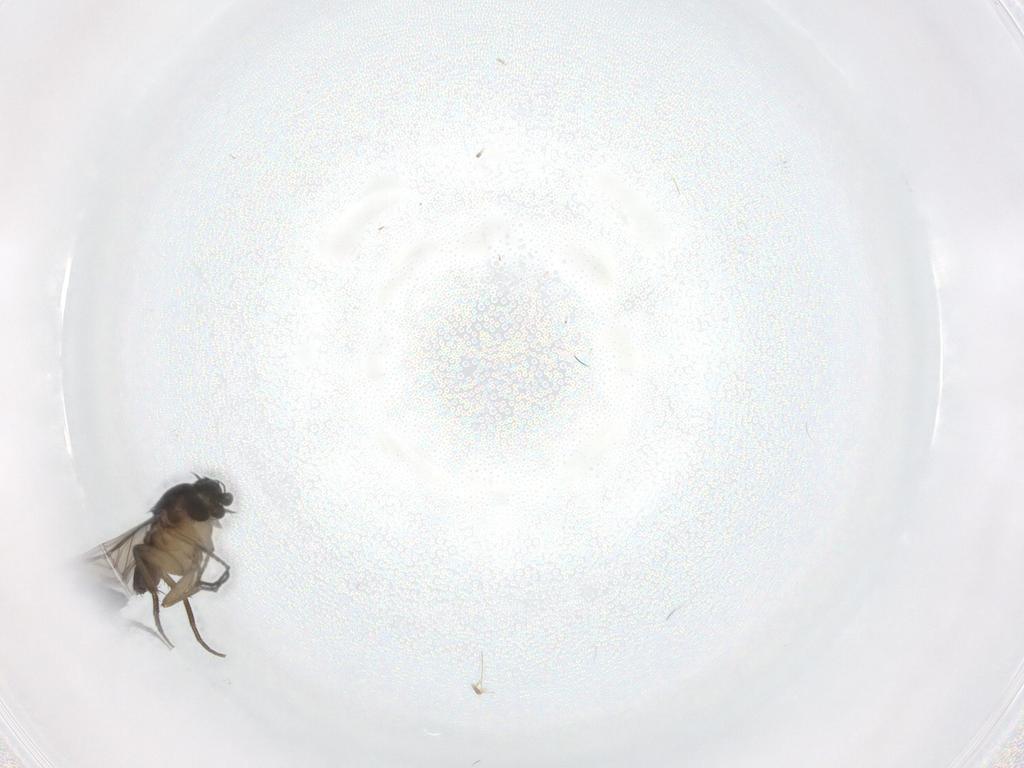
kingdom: Animalia
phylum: Arthropoda
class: Insecta
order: Diptera
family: Phoridae
